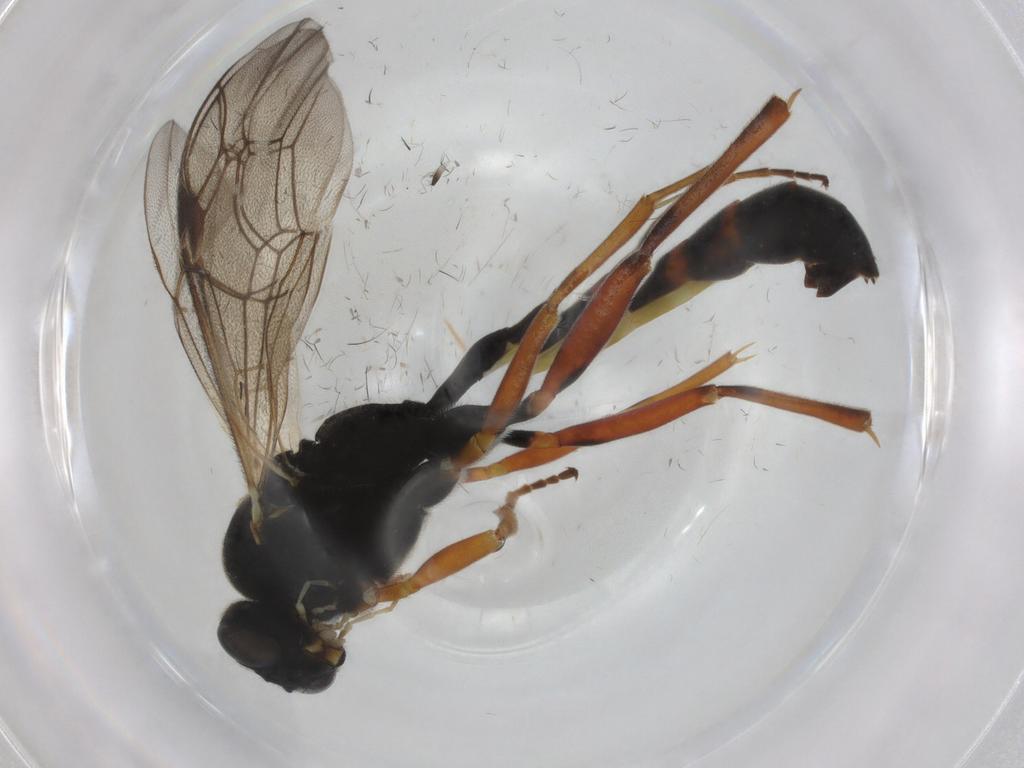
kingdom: Animalia
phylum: Arthropoda
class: Insecta
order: Hymenoptera
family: Ichneumonidae
